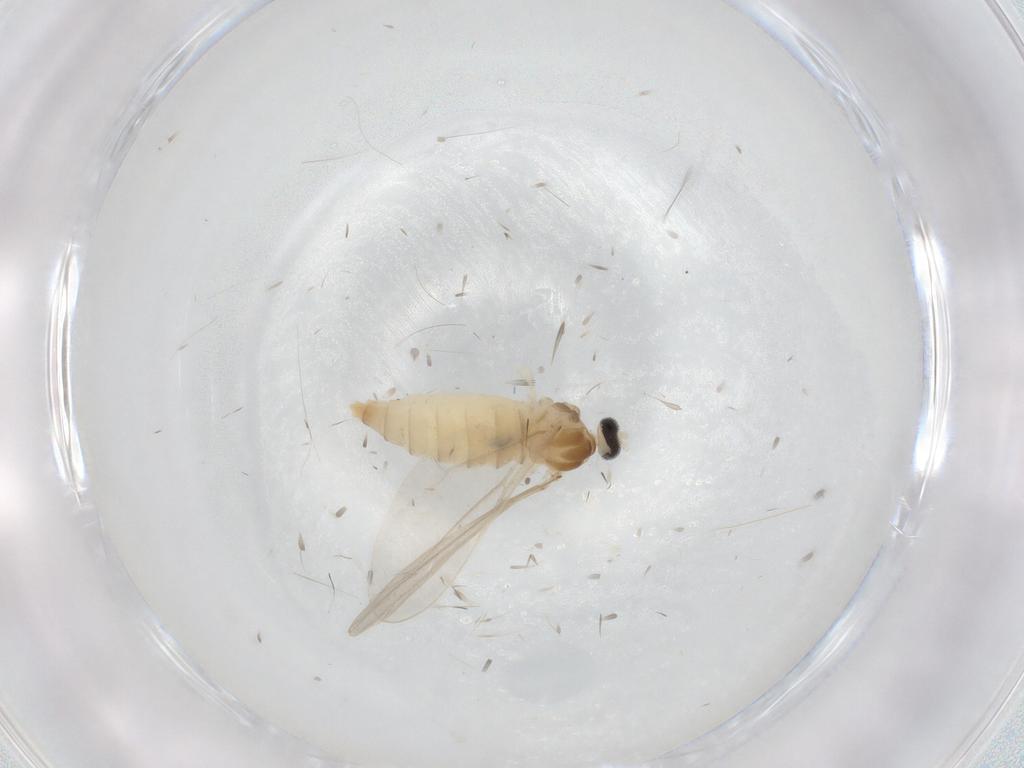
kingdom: Animalia
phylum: Arthropoda
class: Insecta
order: Diptera
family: Cecidomyiidae
